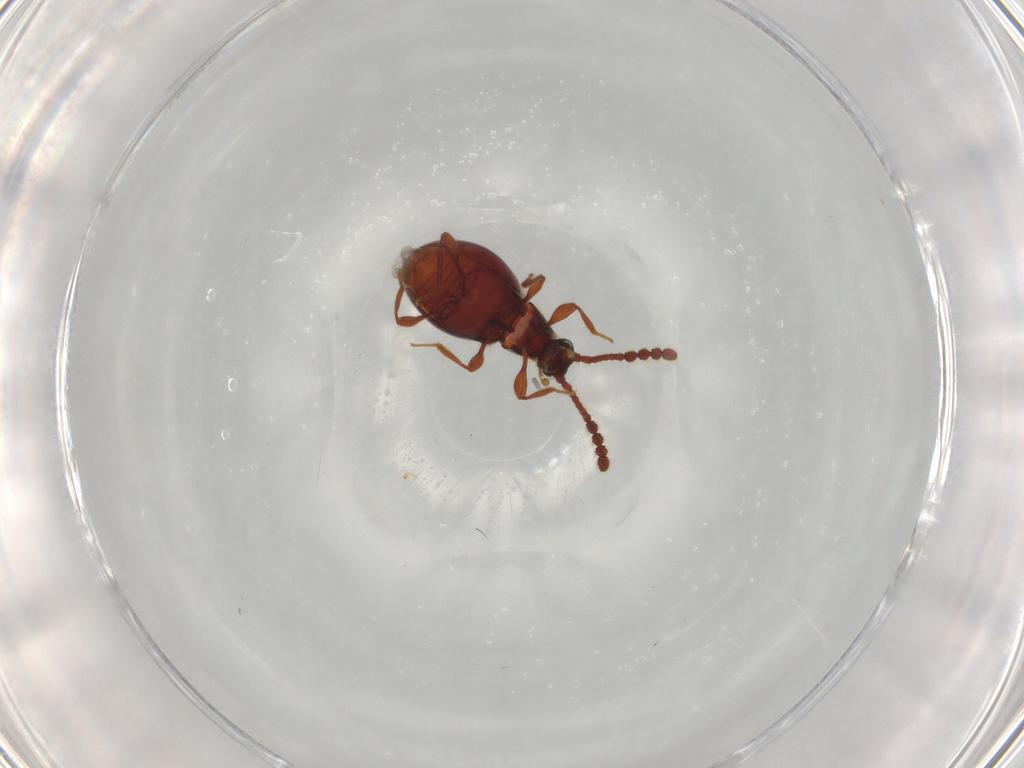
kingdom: Animalia
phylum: Arthropoda
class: Insecta
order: Coleoptera
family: Staphylinidae
